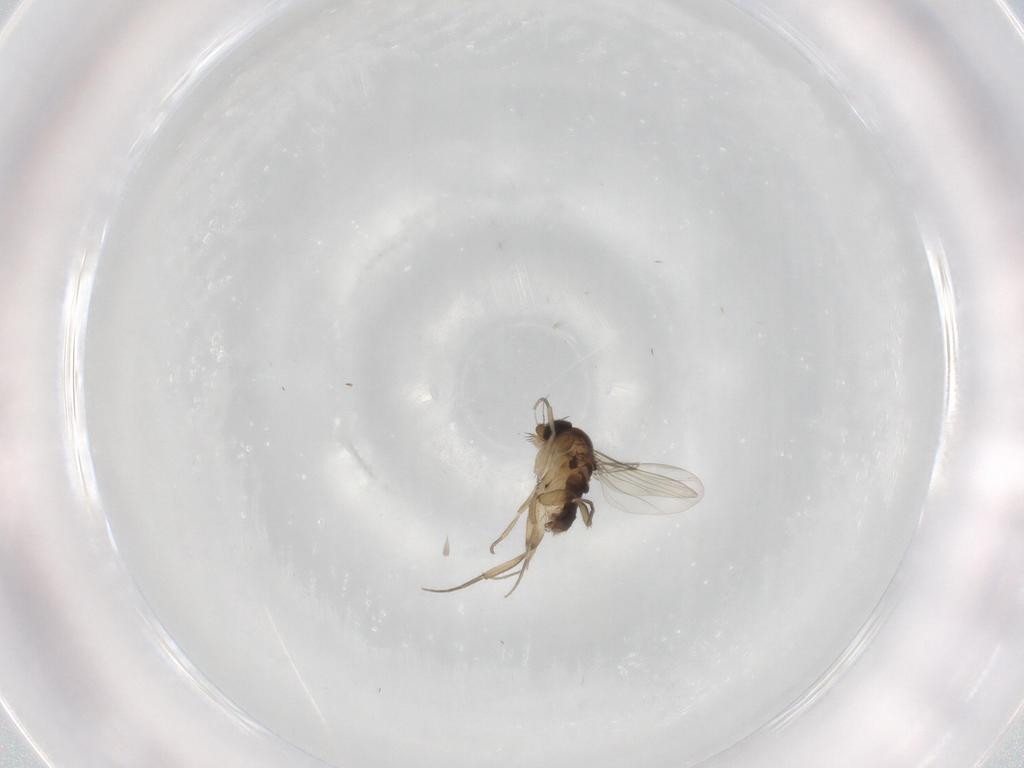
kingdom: Animalia
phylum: Arthropoda
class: Insecta
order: Diptera
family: Phoridae
